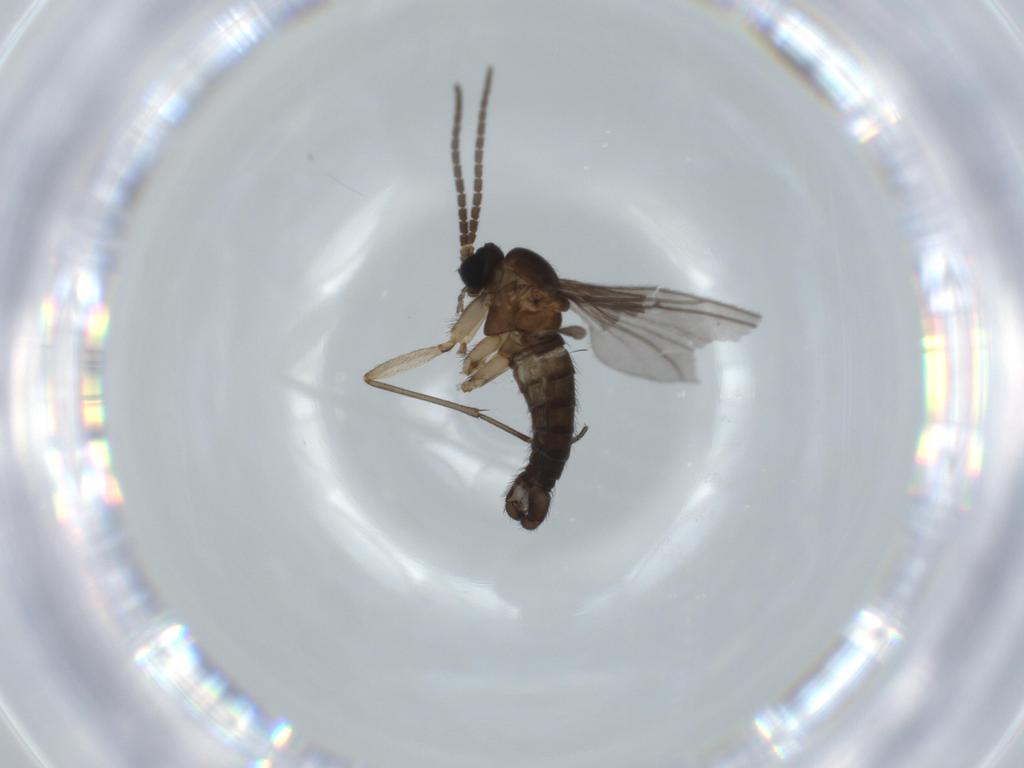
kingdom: Animalia
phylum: Arthropoda
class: Insecta
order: Diptera
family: Sciaridae
